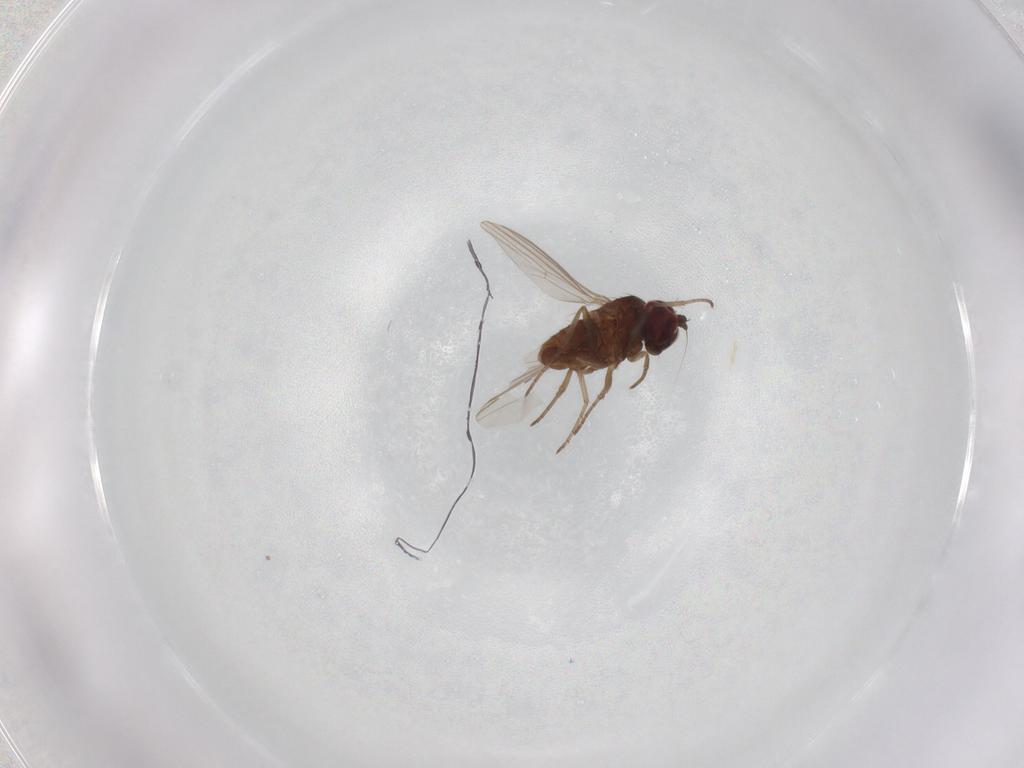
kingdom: Animalia
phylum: Arthropoda
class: Insecta
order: Diptera
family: Dolichopodidae
